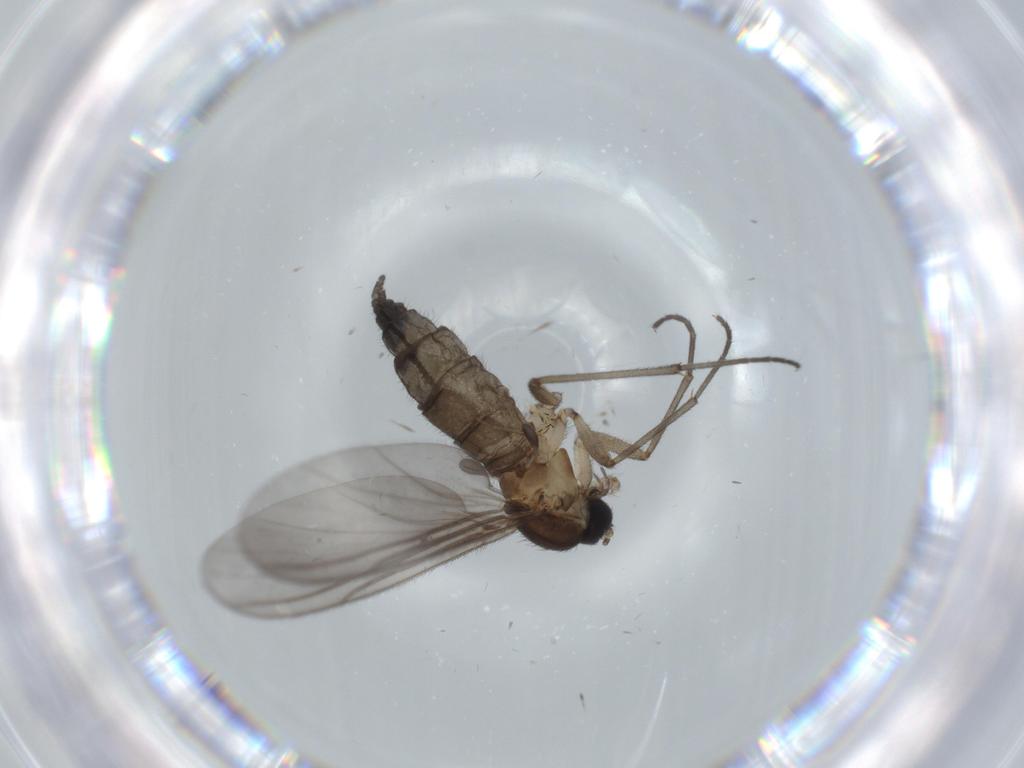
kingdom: Animalia
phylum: Arthropoda
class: Insecta
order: Diptera
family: Sciaridae
